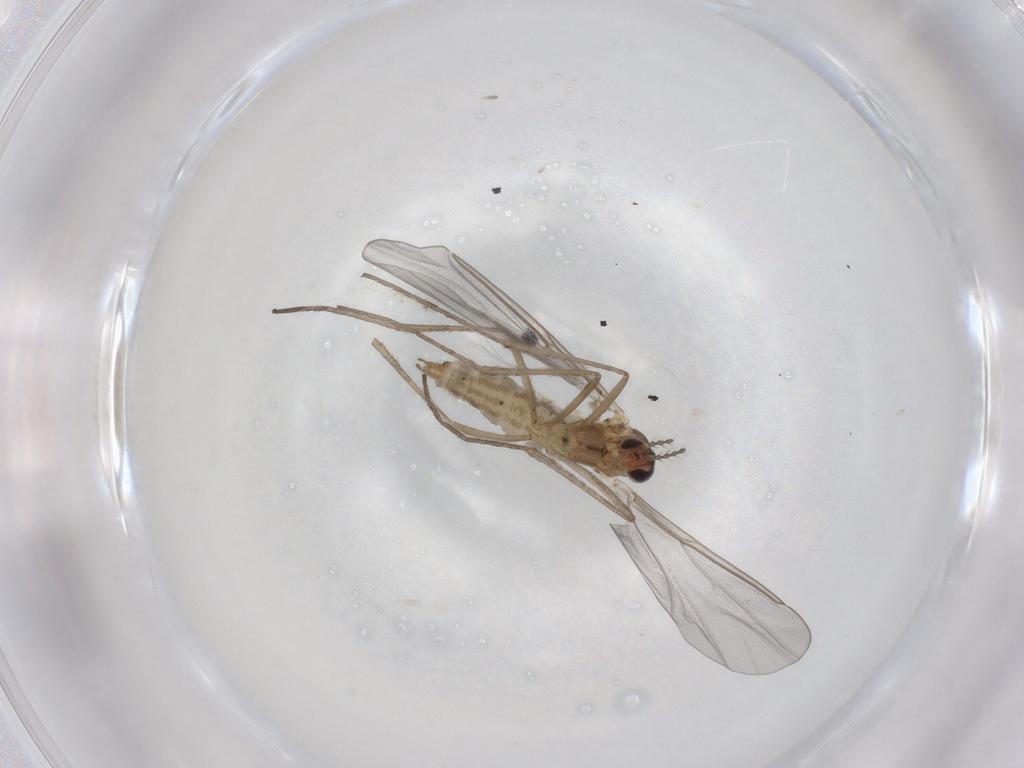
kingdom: Animalia
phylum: Arthropoda
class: Insecta
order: Diptera
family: Cecidomyiidae
